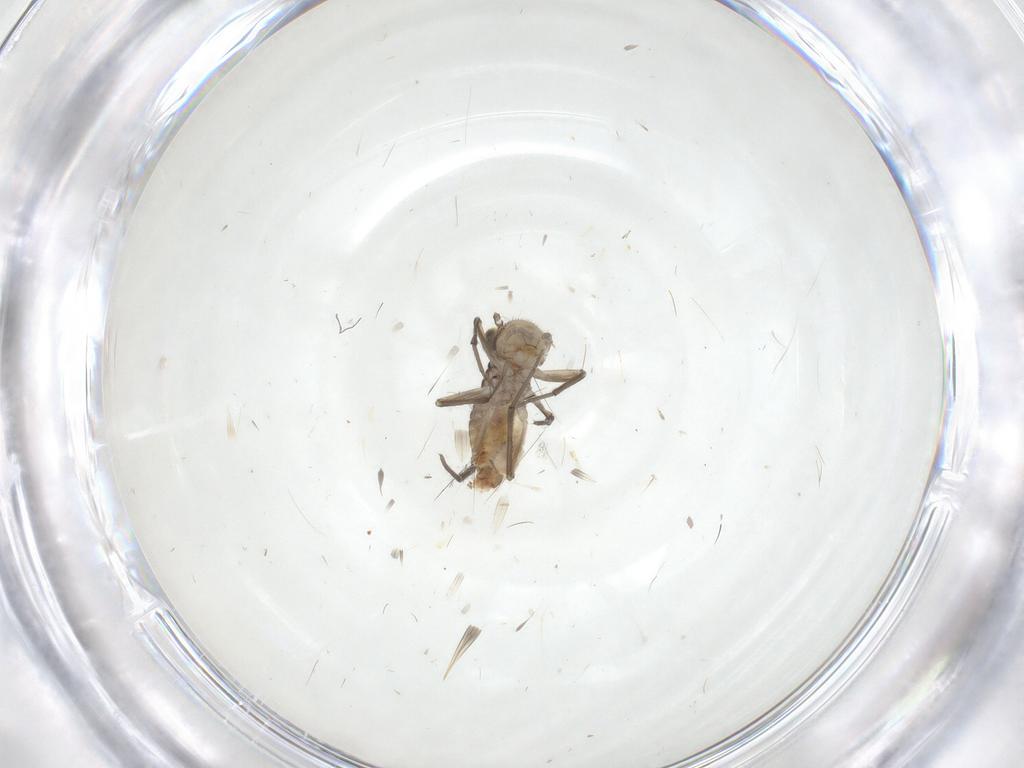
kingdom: Animalia
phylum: Arthropoda
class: Insecta
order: Diptera
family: Phoridae
